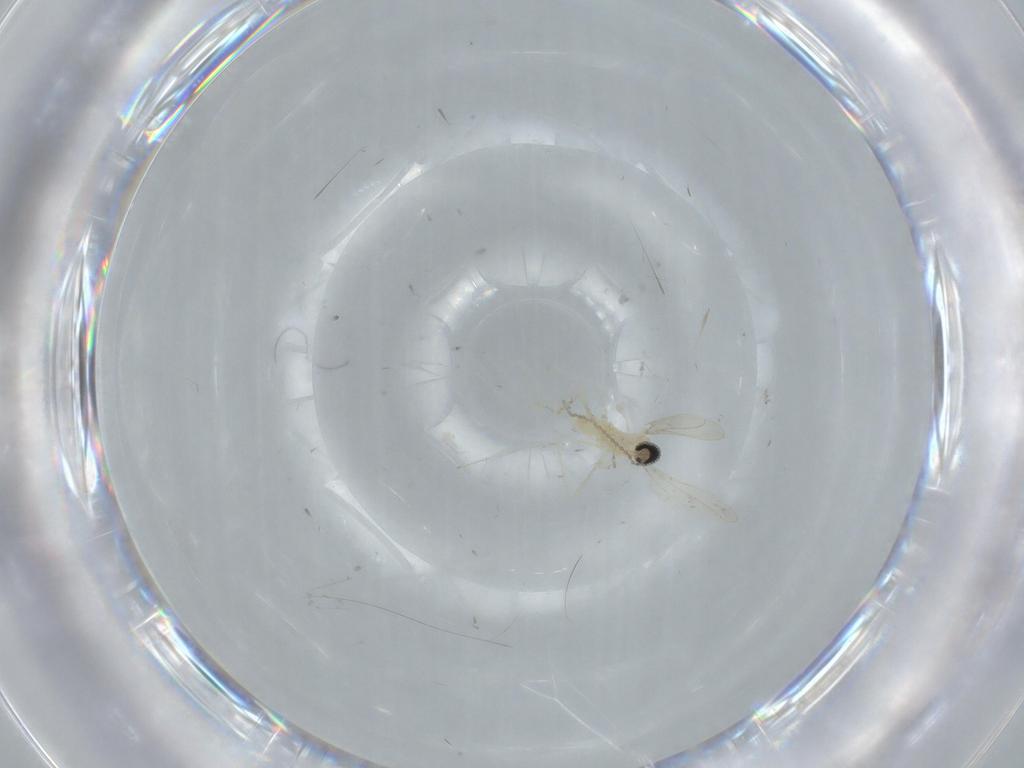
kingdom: Animalia
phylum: Arthropoda
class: Insecta
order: Diptera
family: Cecidomyiidae
